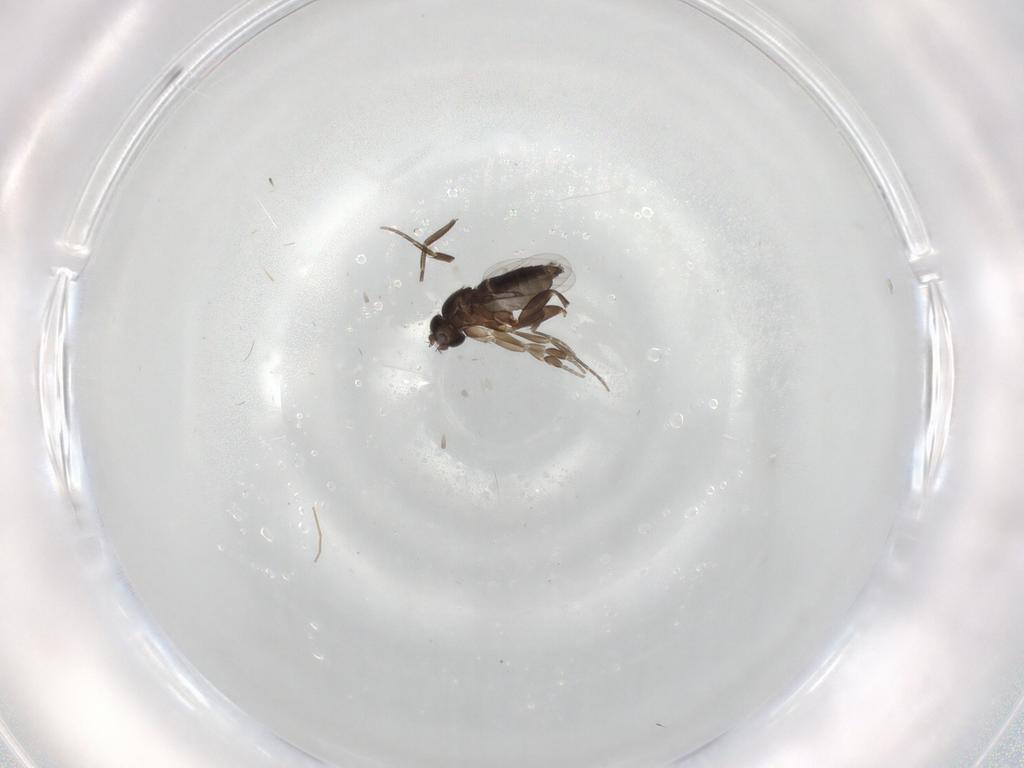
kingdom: Animalia
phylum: Arthropoda
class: Insecta
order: Diptera
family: Phoridae
